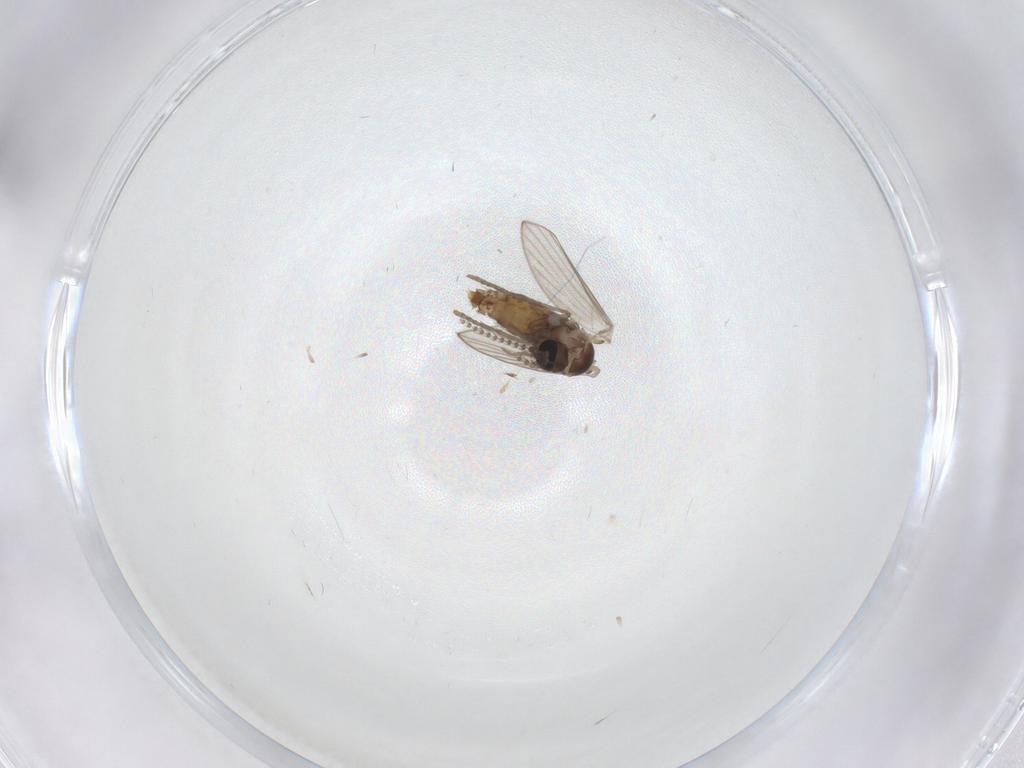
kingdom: Animalia
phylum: Arthropoda
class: Insecta
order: Diptera
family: Psychodidae
